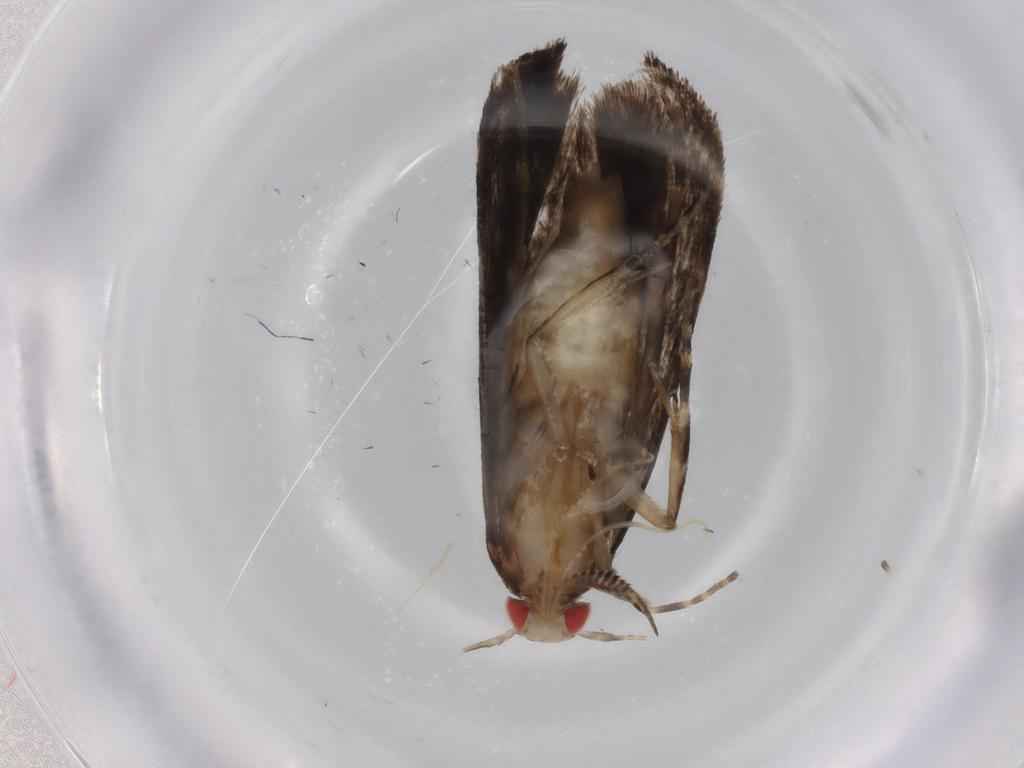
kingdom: Animalia
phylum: Arthropoda
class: Insecta
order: Lepidoptera
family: Gelechiidae
